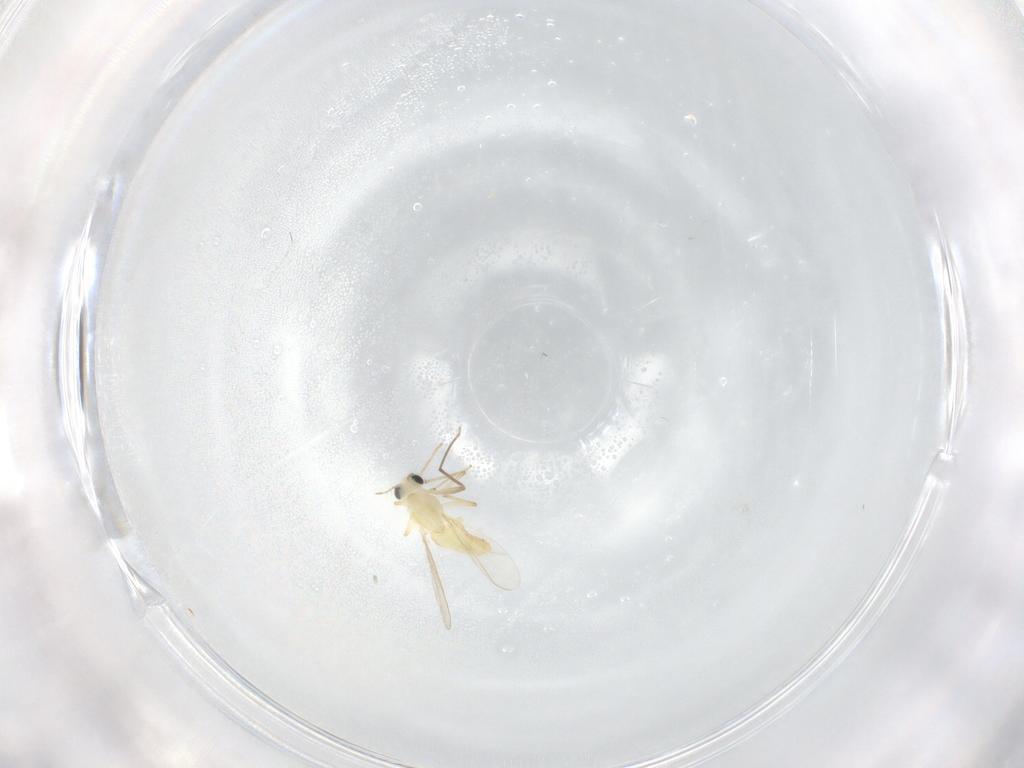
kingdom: Animalia
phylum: Arthropoda
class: Insecta
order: Diptera
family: Chironomidae
